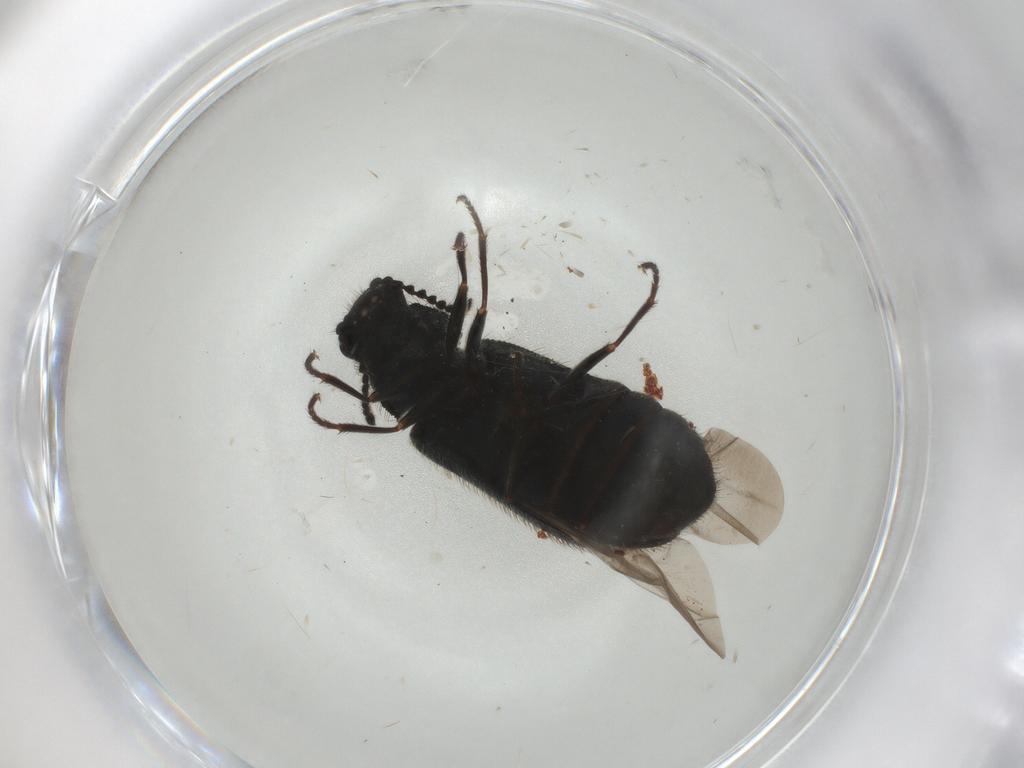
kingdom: Animalia
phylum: Arthropoda
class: Insecta
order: Coleoptera
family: Melyridae
